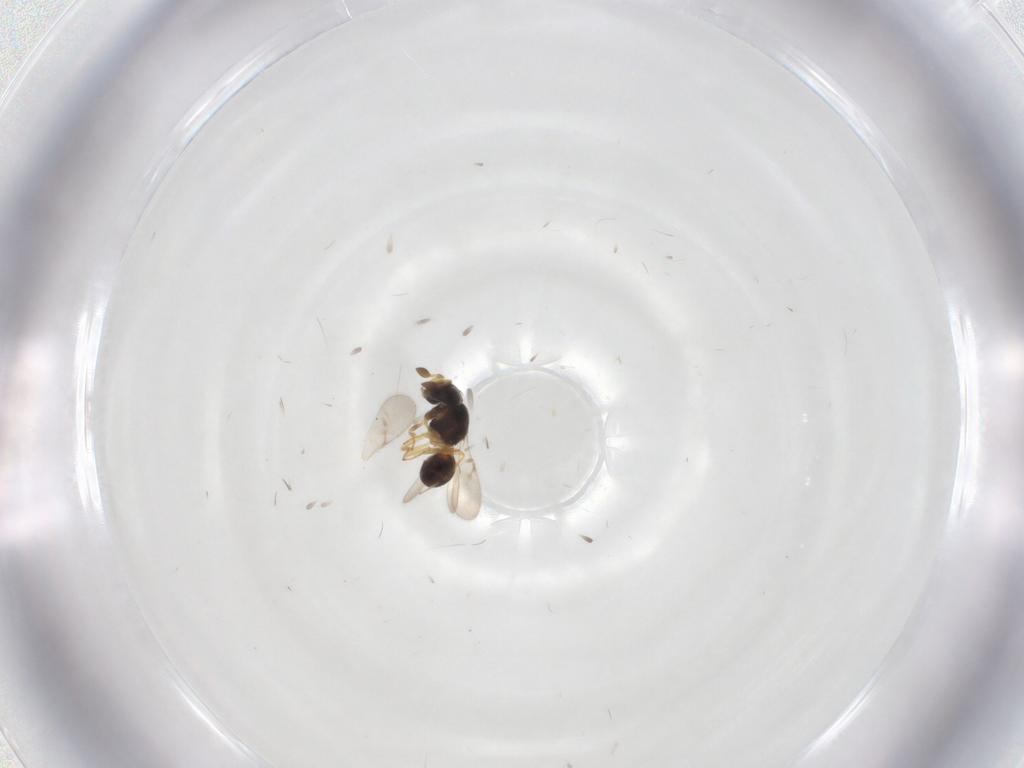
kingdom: Animalia
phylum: Arthropoda
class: Insecta
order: Hymenoptera
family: Scelionidae
